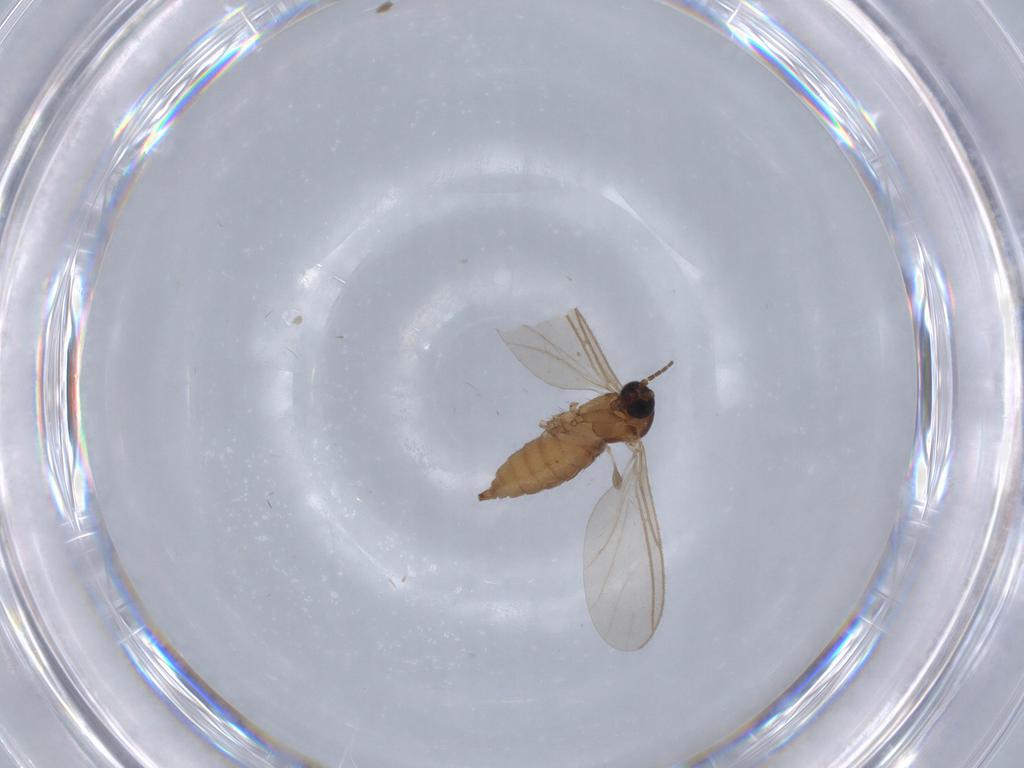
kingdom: Animalia
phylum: Arthropoda
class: Insecta
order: Diptera
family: Sciaridae
